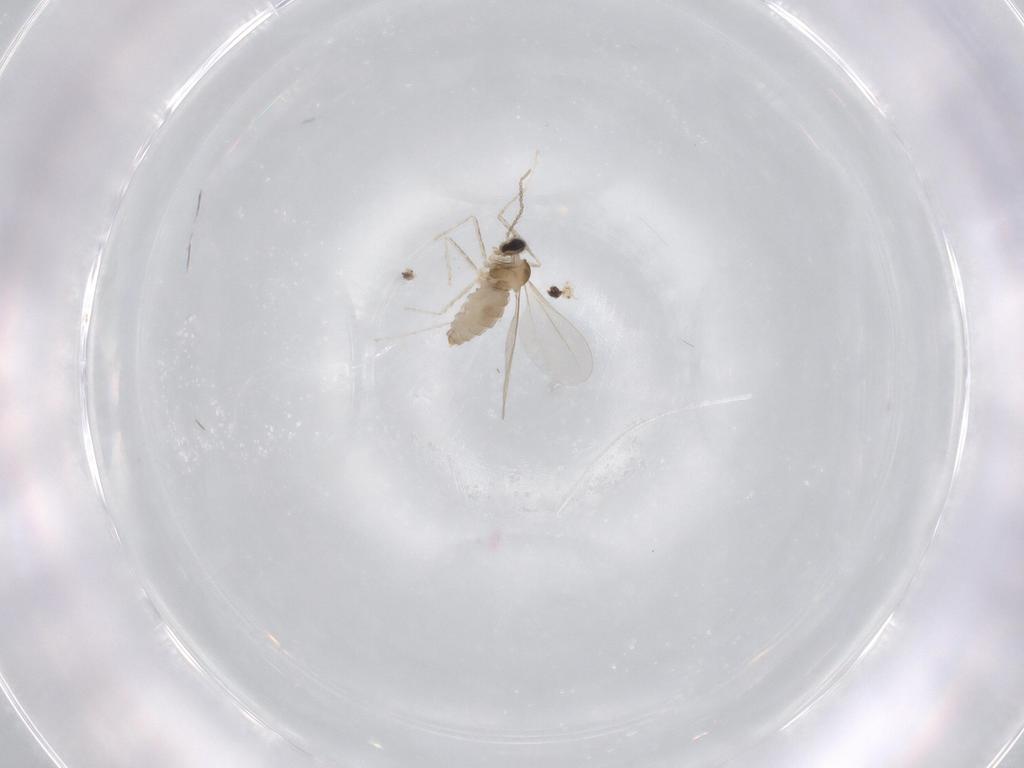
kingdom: Animalia
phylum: Arthropoda
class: Insecta
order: Diptera
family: Cecidomyiidae
